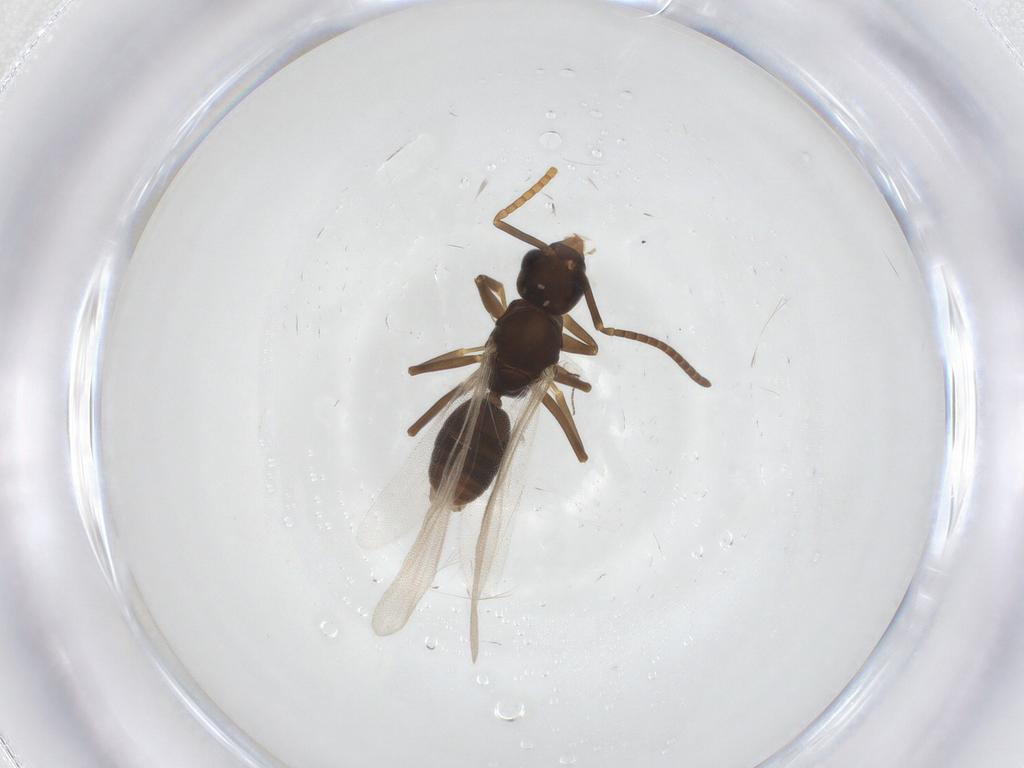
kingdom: Animalia
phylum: Arthropoda
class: Insecta
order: Hymenoptera
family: Formicidae
